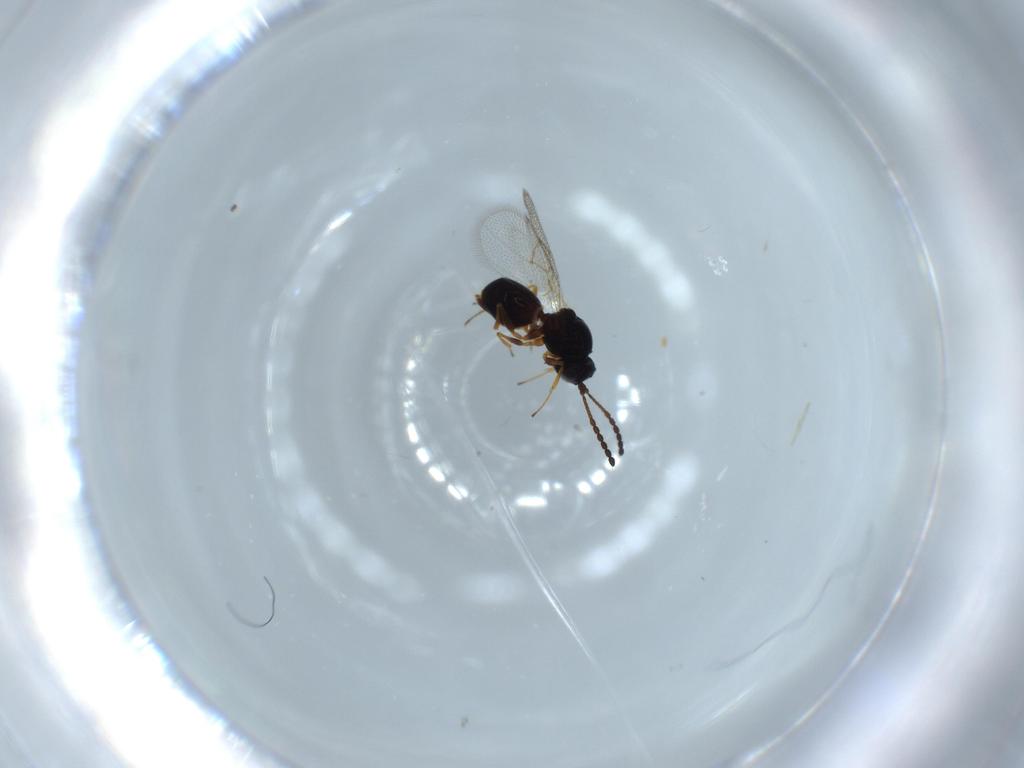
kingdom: Animalia
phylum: Arthropoda
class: Insecta
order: Hymenoptera
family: Figitidae
